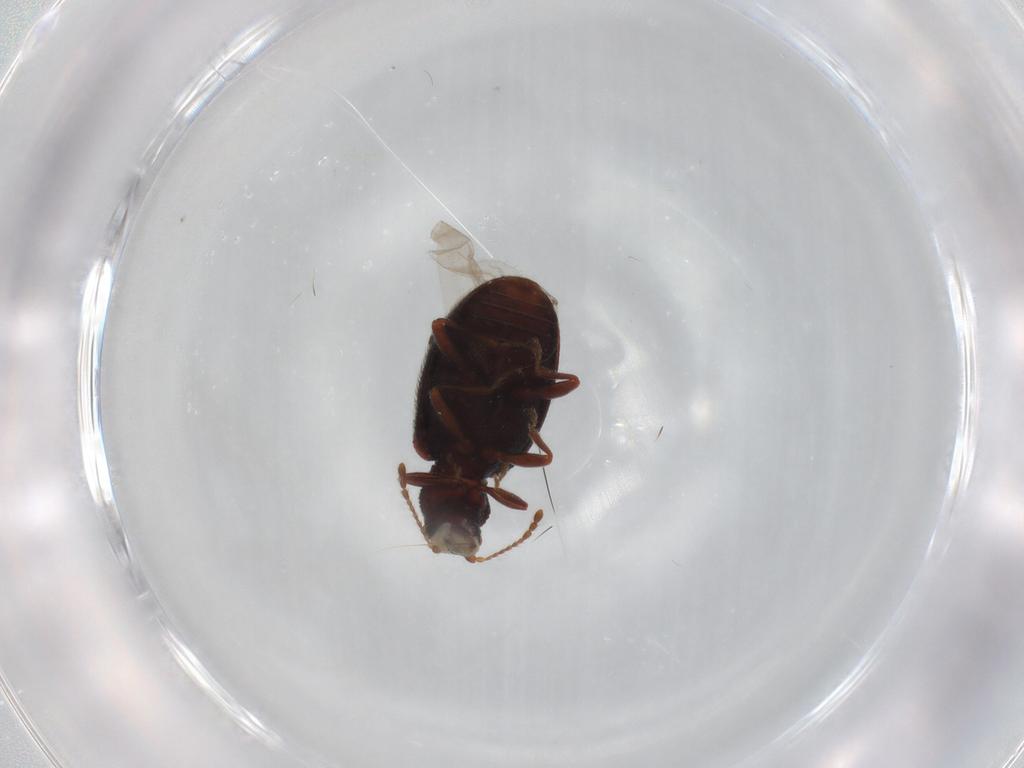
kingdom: Animalia
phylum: Arthropoda
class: Insecta
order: Coleoptera
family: Latridiidae
